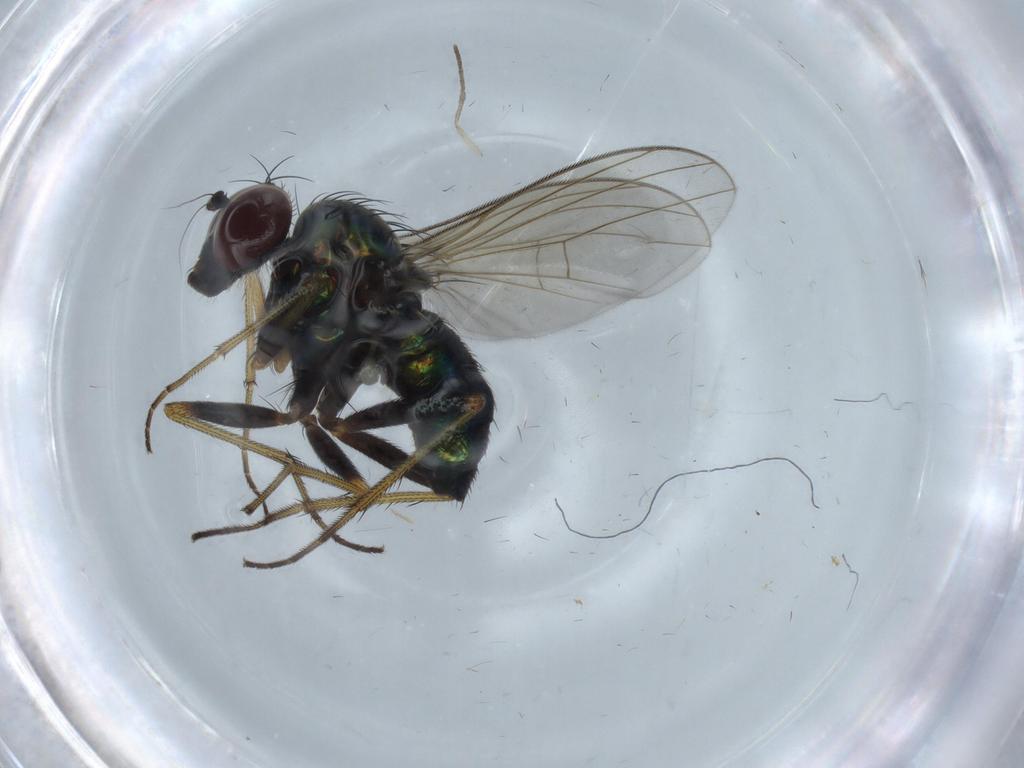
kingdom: Animalia
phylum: Arthropoda
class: Insecta
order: Diptera
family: Dolichopodidae
